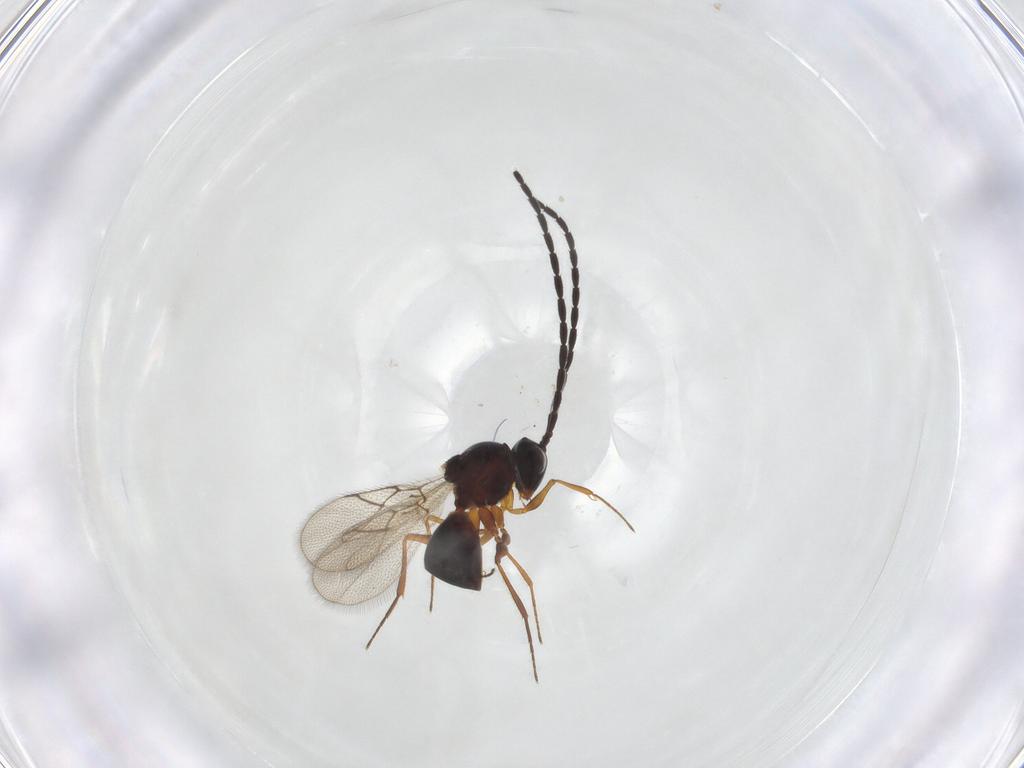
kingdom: Animalia
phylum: Arthropoda
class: Insecta
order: Hymenoptera
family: Figitidae
